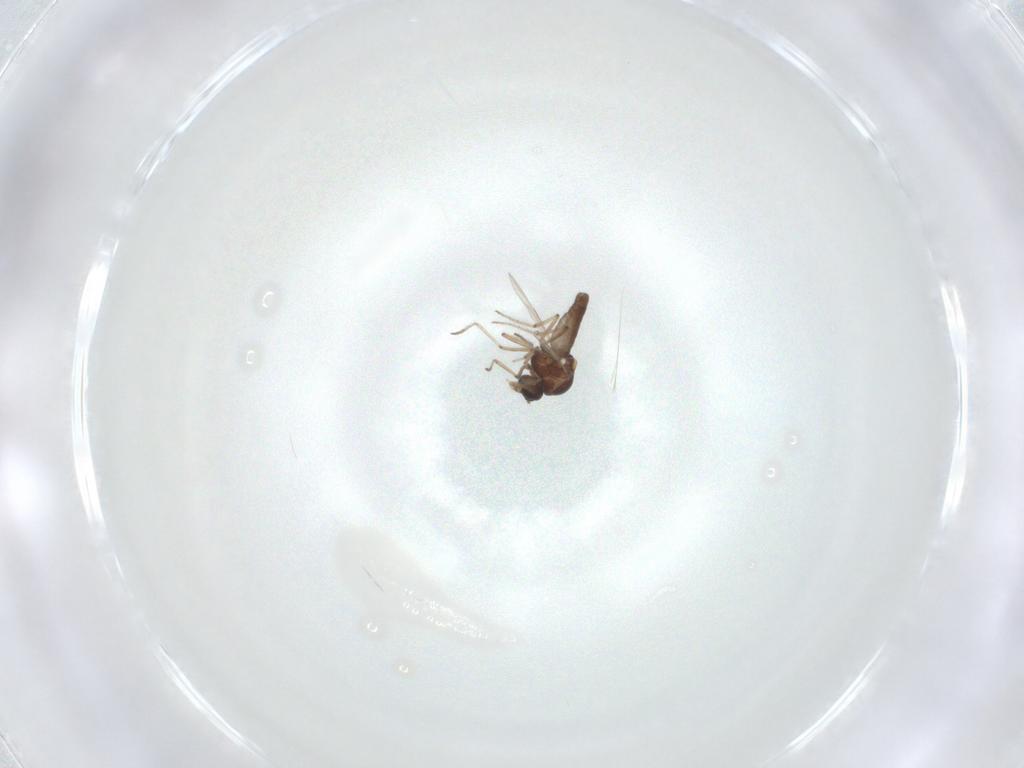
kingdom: Animalia
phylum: Arthropoda
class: Insecta
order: Diptera
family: Ceratopogonidae
